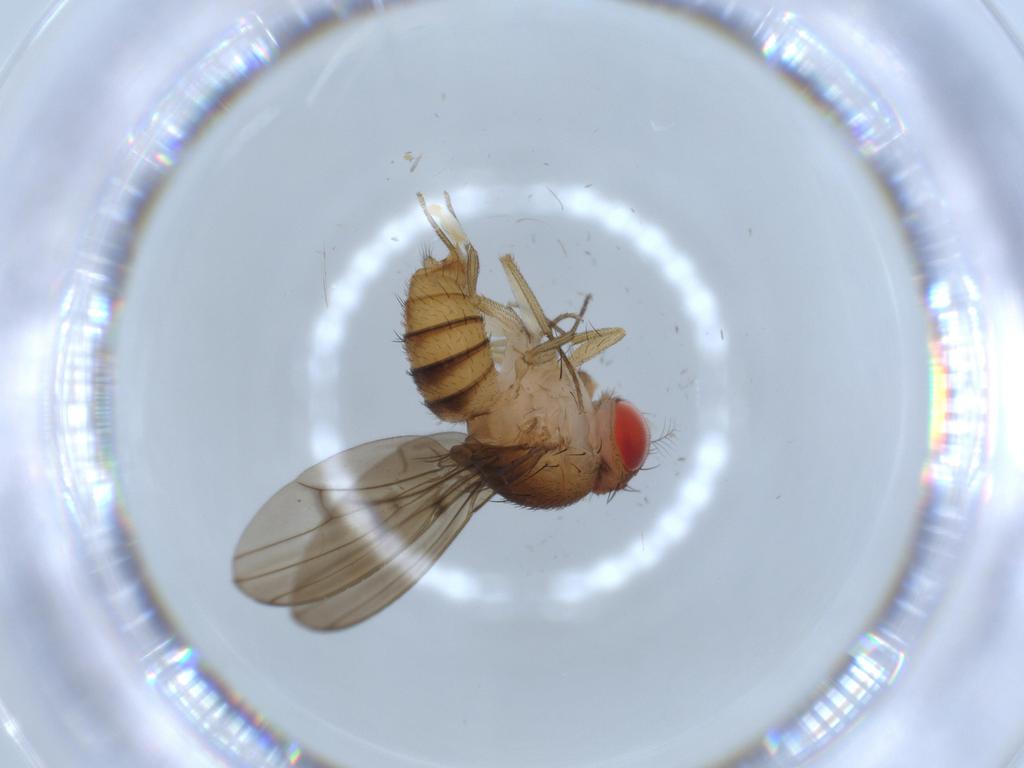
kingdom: Animalia
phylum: Arthropoda
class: Insecta
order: Diptera
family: Drosophilidae
